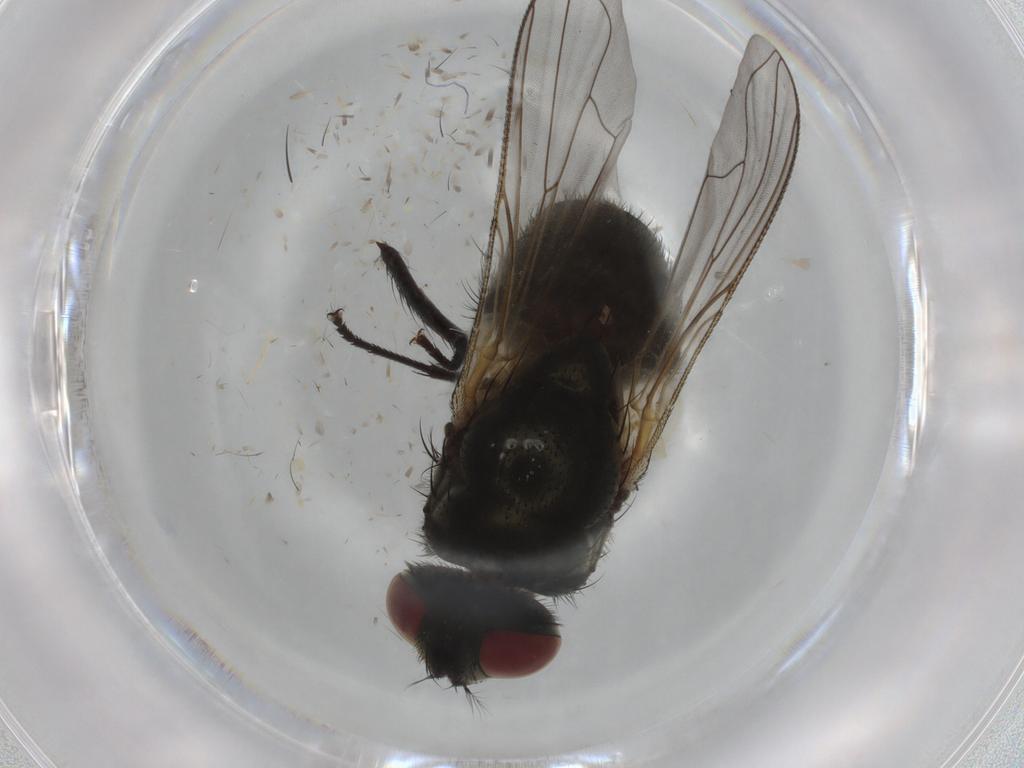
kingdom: Animalia
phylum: Arthropoda
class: Insecta
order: Diptera
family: Muscidae
